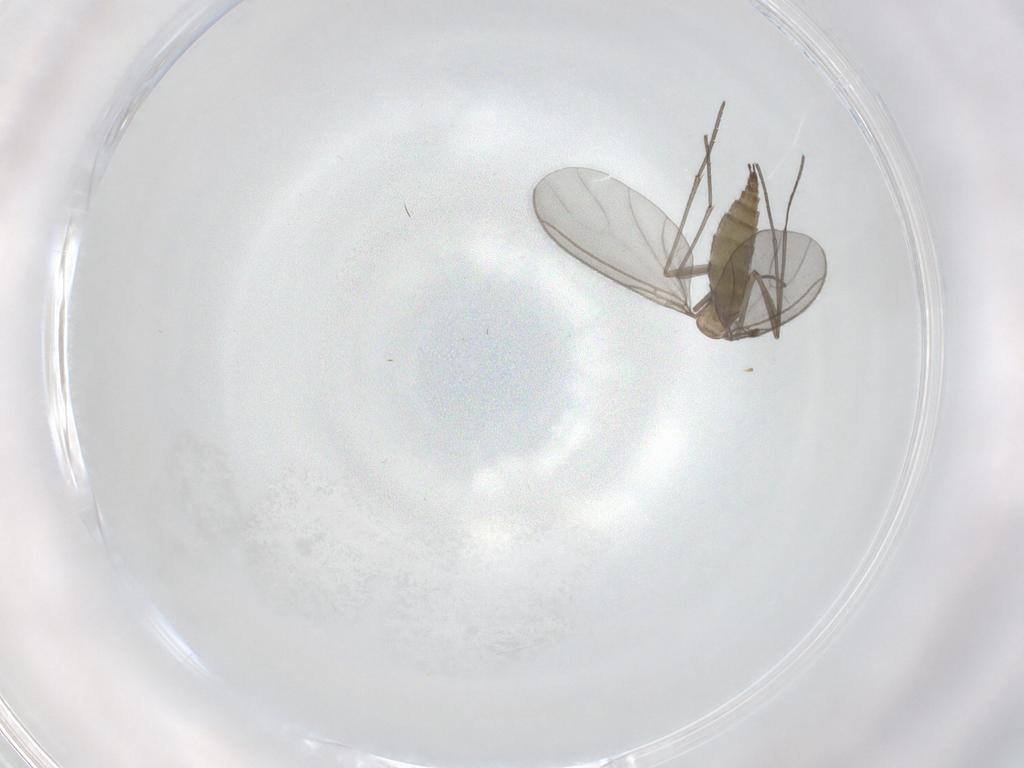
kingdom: Animalia
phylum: Arthropoda
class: Insecta
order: Diptera
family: Sciaridae
